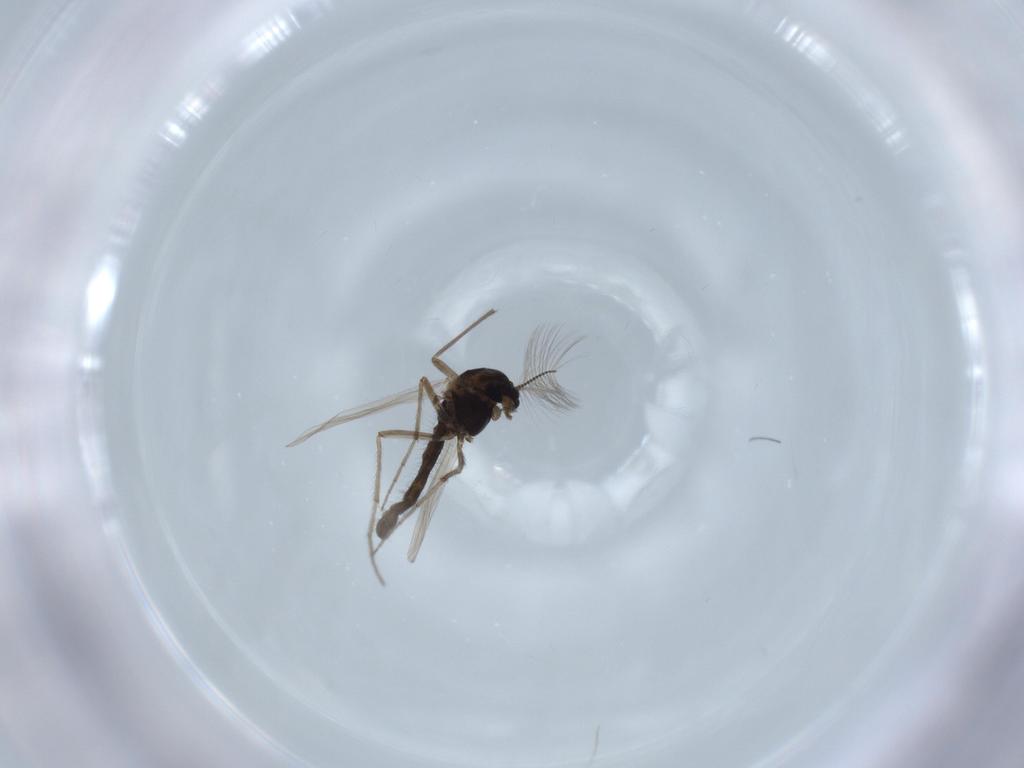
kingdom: Animalia
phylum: Arthropoda
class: Insecta
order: Diptera
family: Chironomidae
